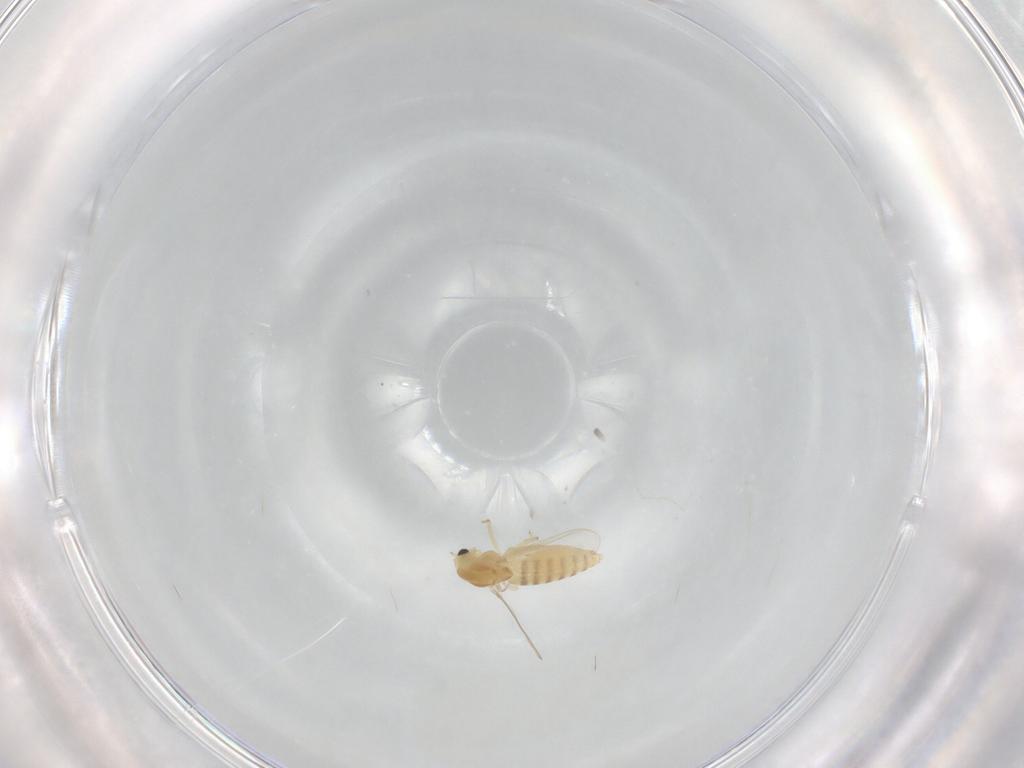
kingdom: Animalia
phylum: Arthropoda
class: Insecta
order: Diptera
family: Chironomidae
